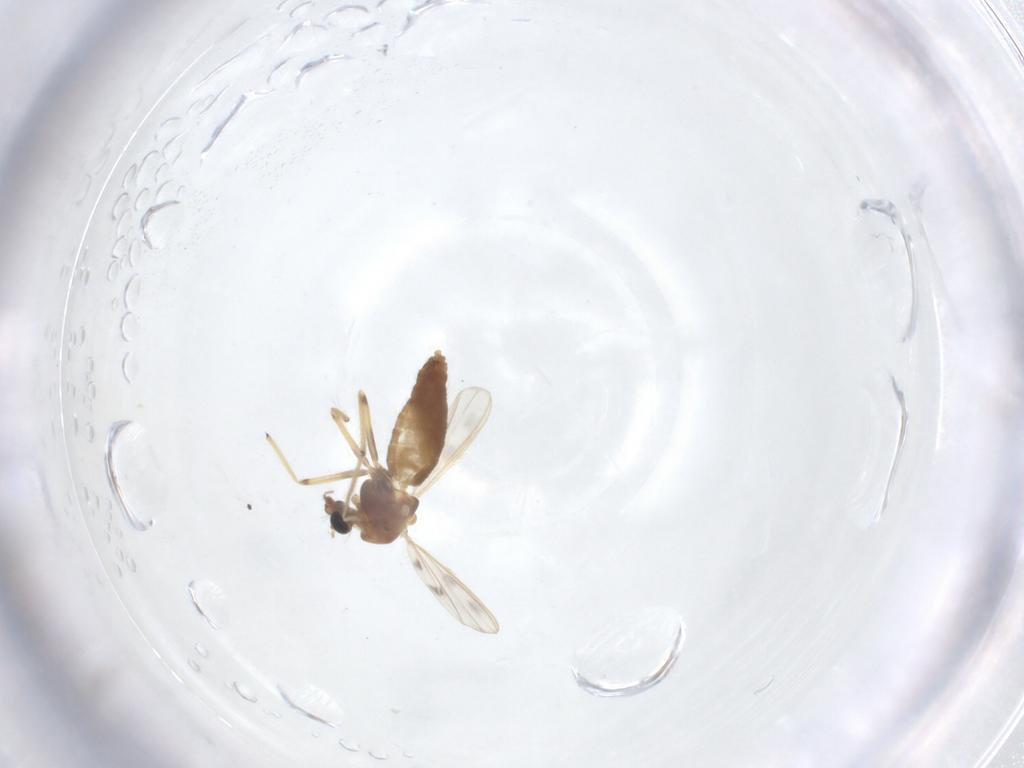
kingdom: Animalia
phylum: Arthropoda
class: Insecta
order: Diptera
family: Chironomidae
